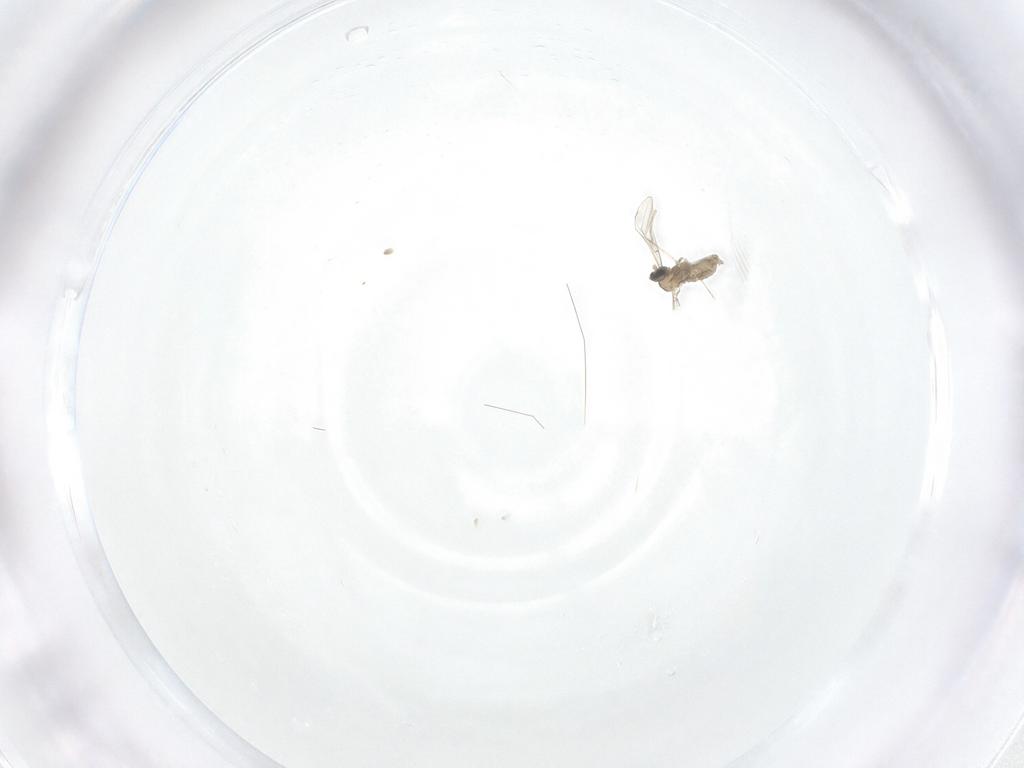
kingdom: Animalia
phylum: Arthropoda
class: Insecta
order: Diptera
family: Cecidomyiidae
